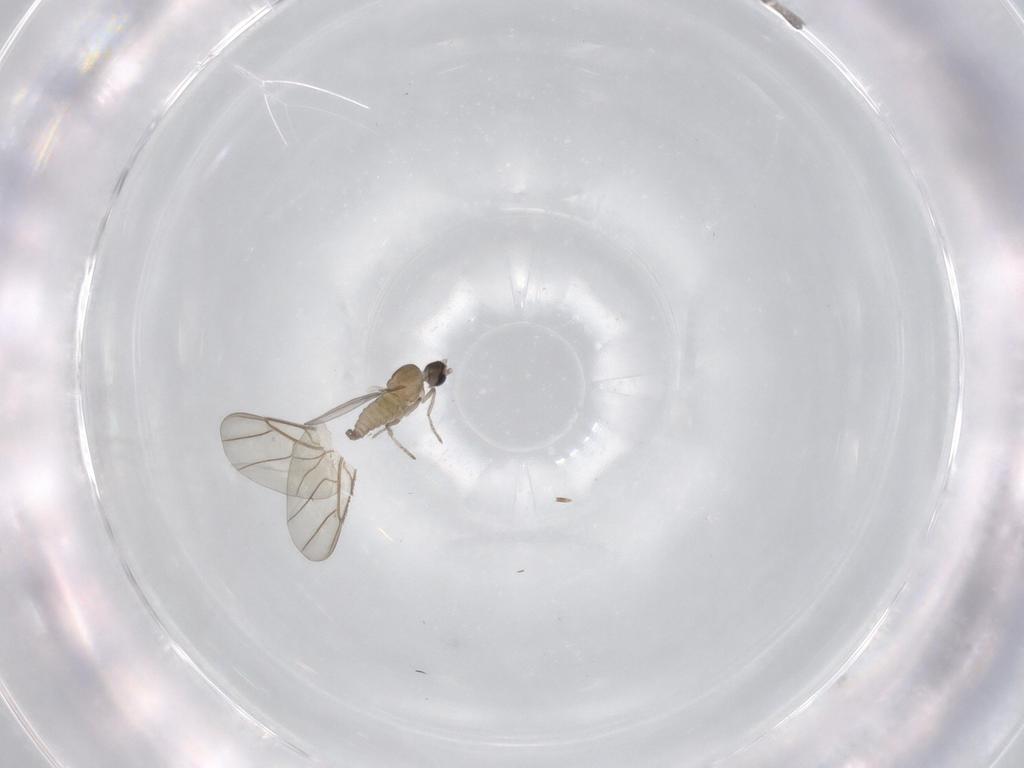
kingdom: Animalia
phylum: Arthropoda
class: Insecta
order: Diptera
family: Cecidomyiidae
